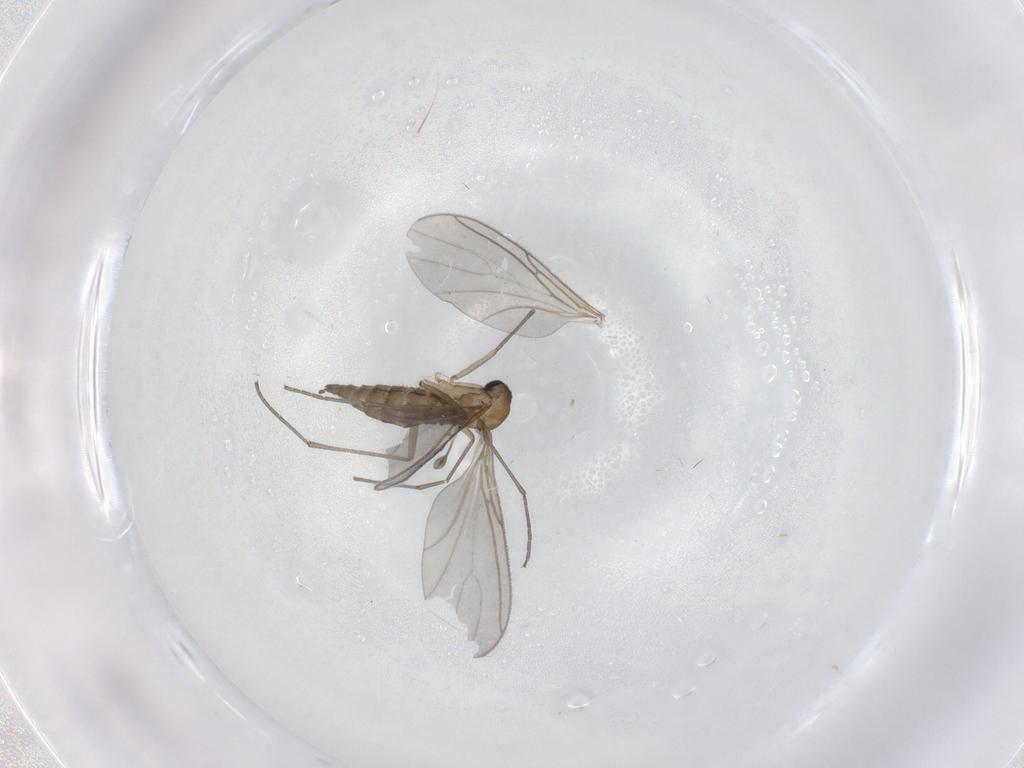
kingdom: Animalia
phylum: Arthropoda
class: Insecta
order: Diptera
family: Sciaridae
